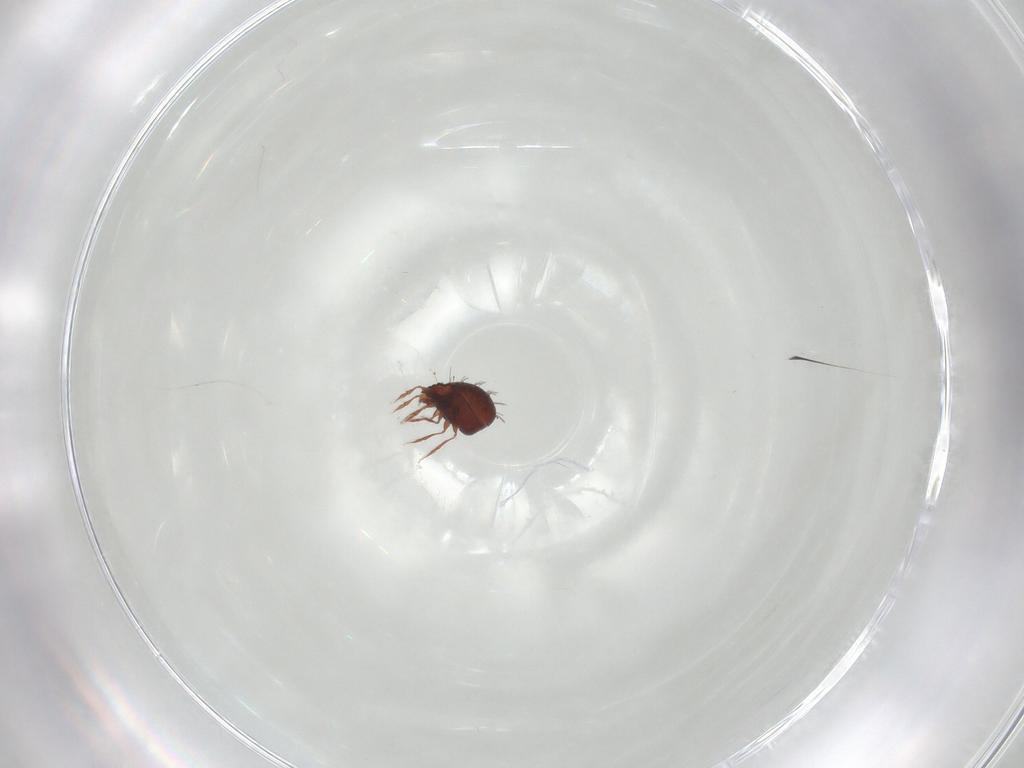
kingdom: Animalia
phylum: Arthropoda
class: Arachnida
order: Sarcoptiformes
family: Caloppiidae
